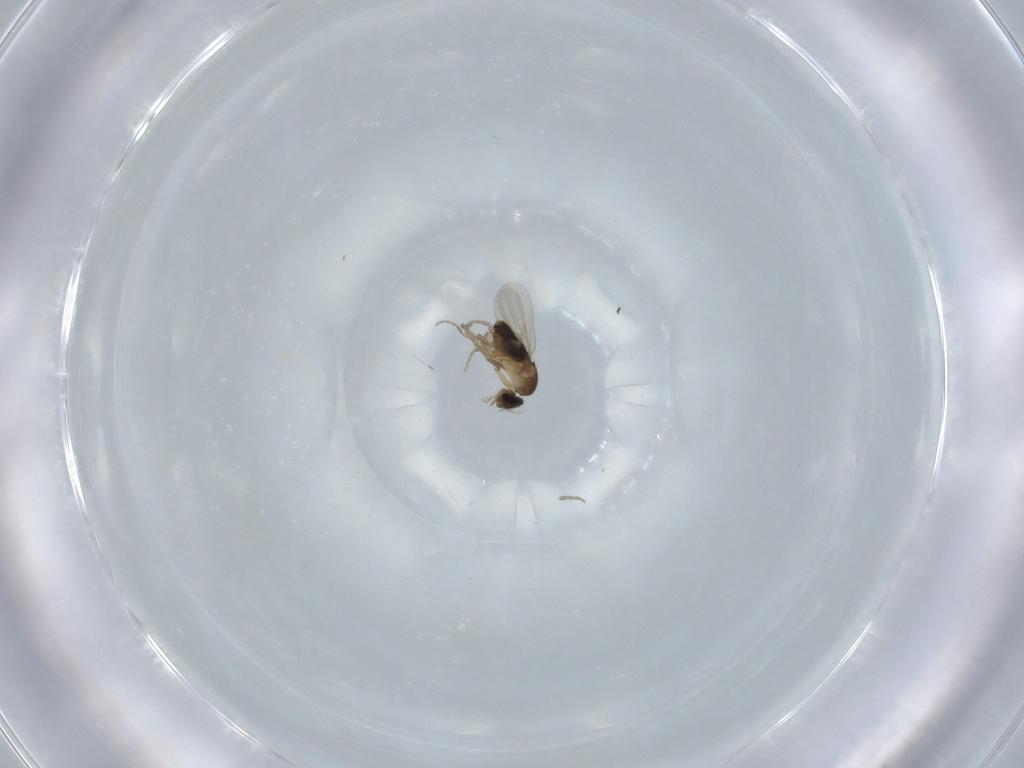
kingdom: Animalia
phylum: Arthropoda
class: Insecta
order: Diptera
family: Phoridae
